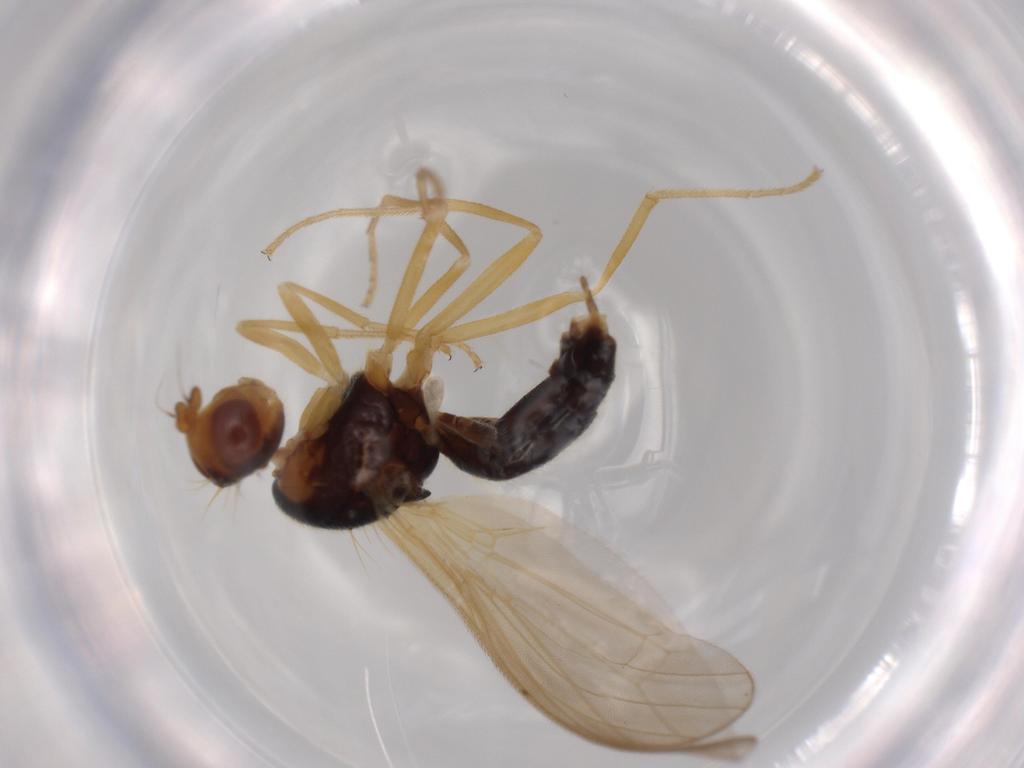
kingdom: Animalia
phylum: Arthropoda
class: Insecta
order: Diptera
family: Psilidae
